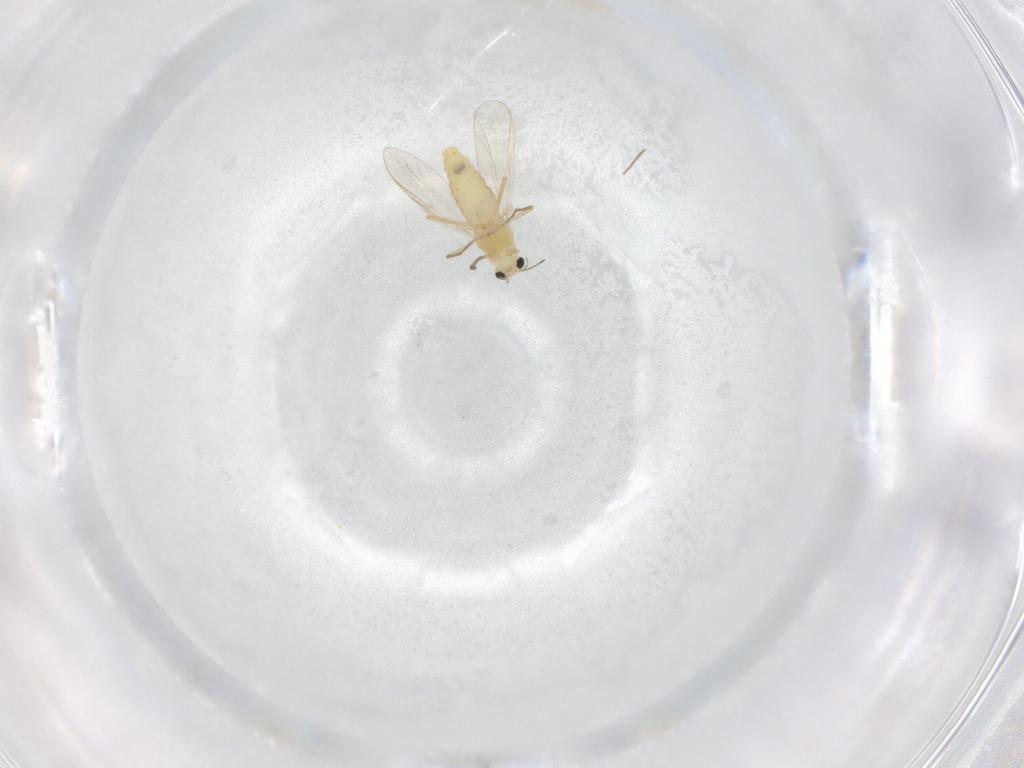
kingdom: Animalia
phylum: Arthropoda
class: Insecta
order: Diptera
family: Chironomidae
